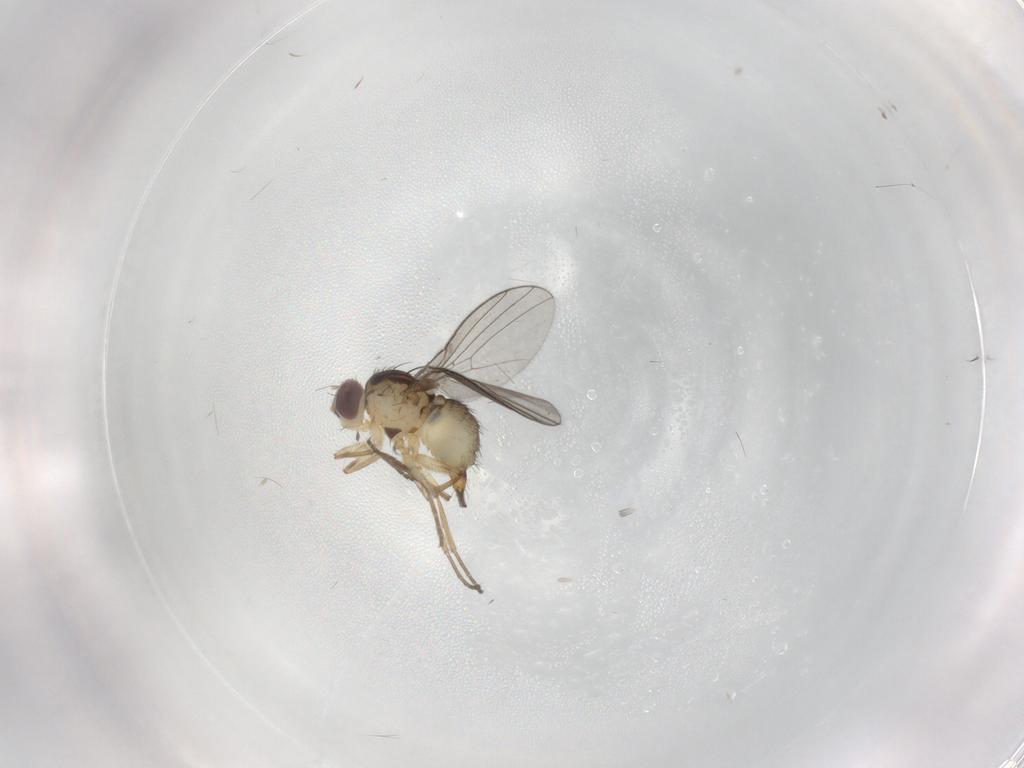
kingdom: Animalia
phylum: Arthropoda
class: Insecta
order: Diptera
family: Agromyzidae
